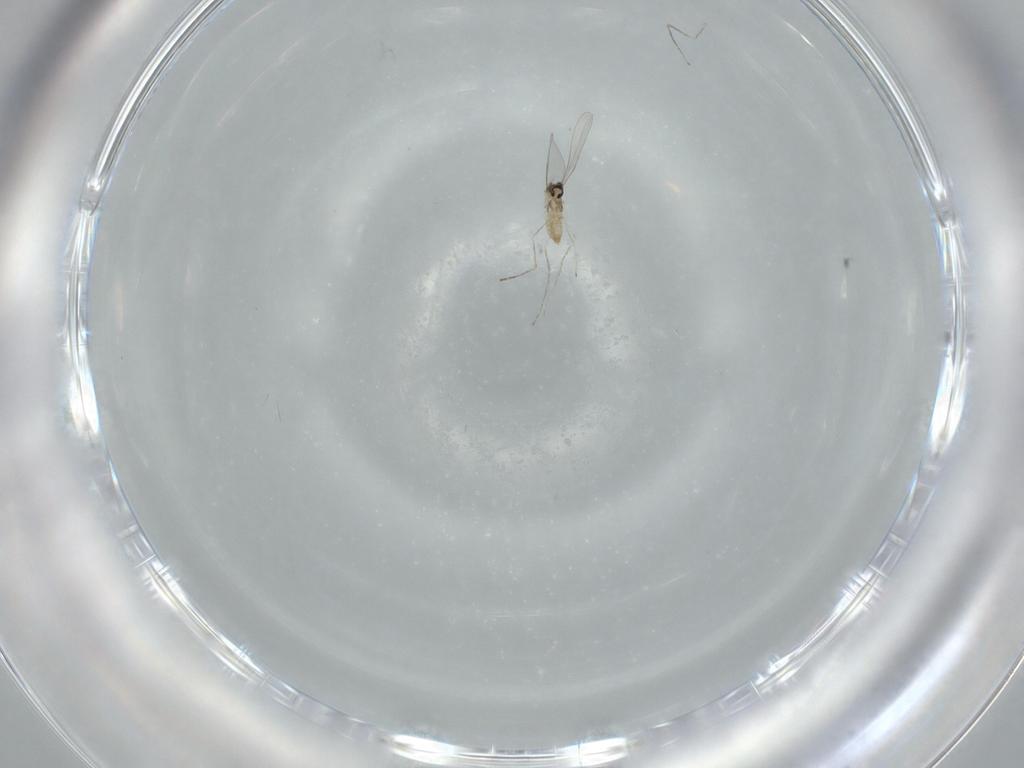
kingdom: Animalia
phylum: Arthropoda
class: Insecta
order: Diptera
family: Cecidomyiidae
